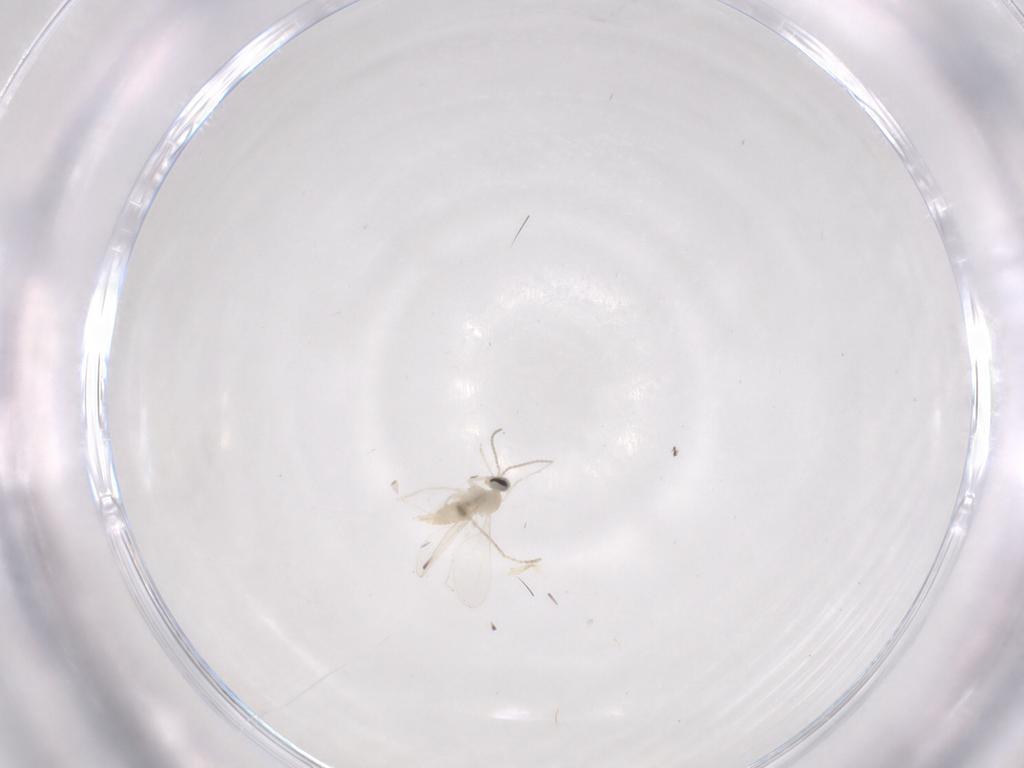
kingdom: Animalia
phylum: Arthropoda
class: Insecta
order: Diptera
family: Cecidomyiidae
